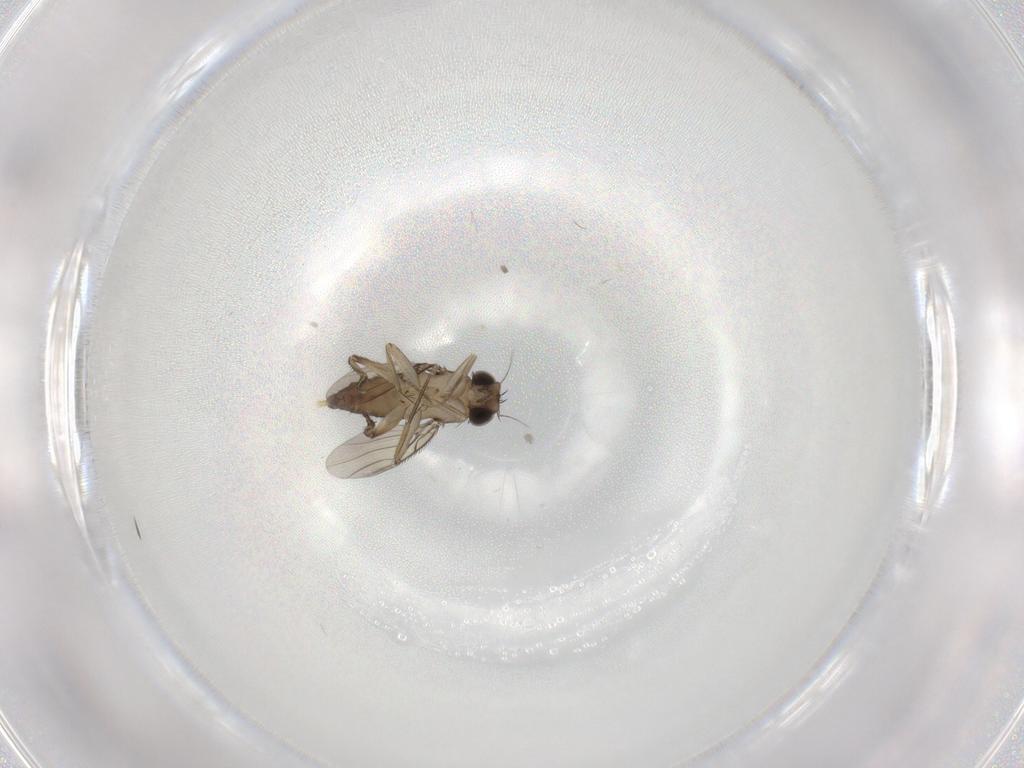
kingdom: Animalia
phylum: Arthropoda
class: Insecta
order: Diptera
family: Phoridae
